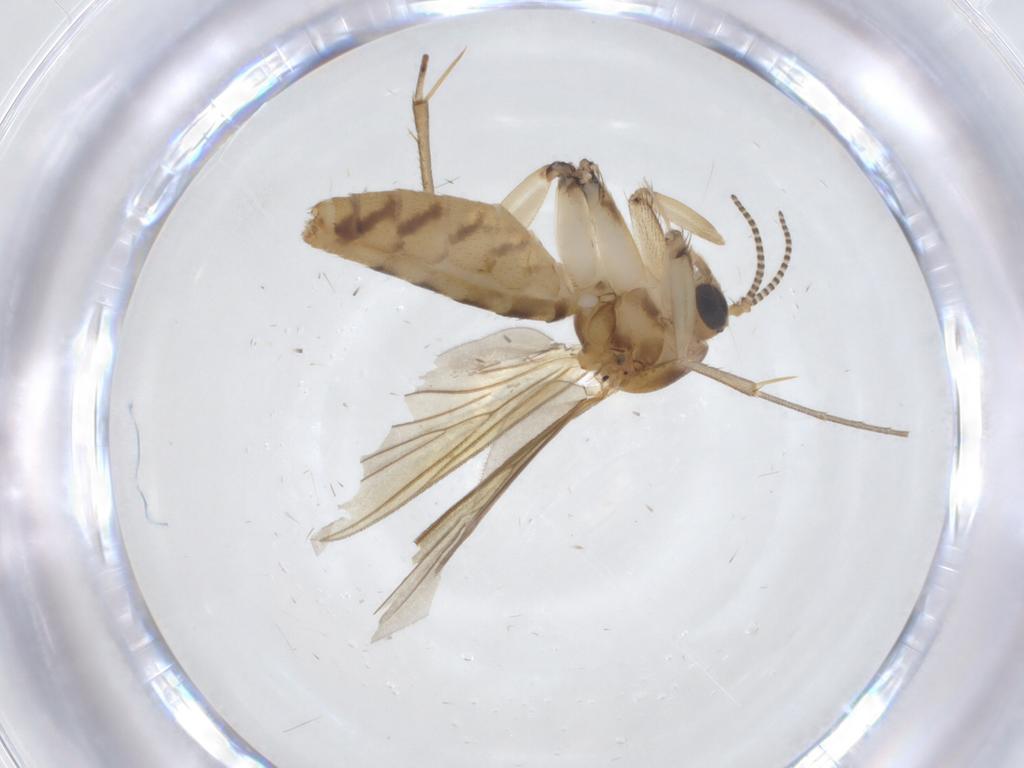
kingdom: Animalia
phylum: Arthropoda
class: Insecta
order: Diptera
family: Mycetophilidae
